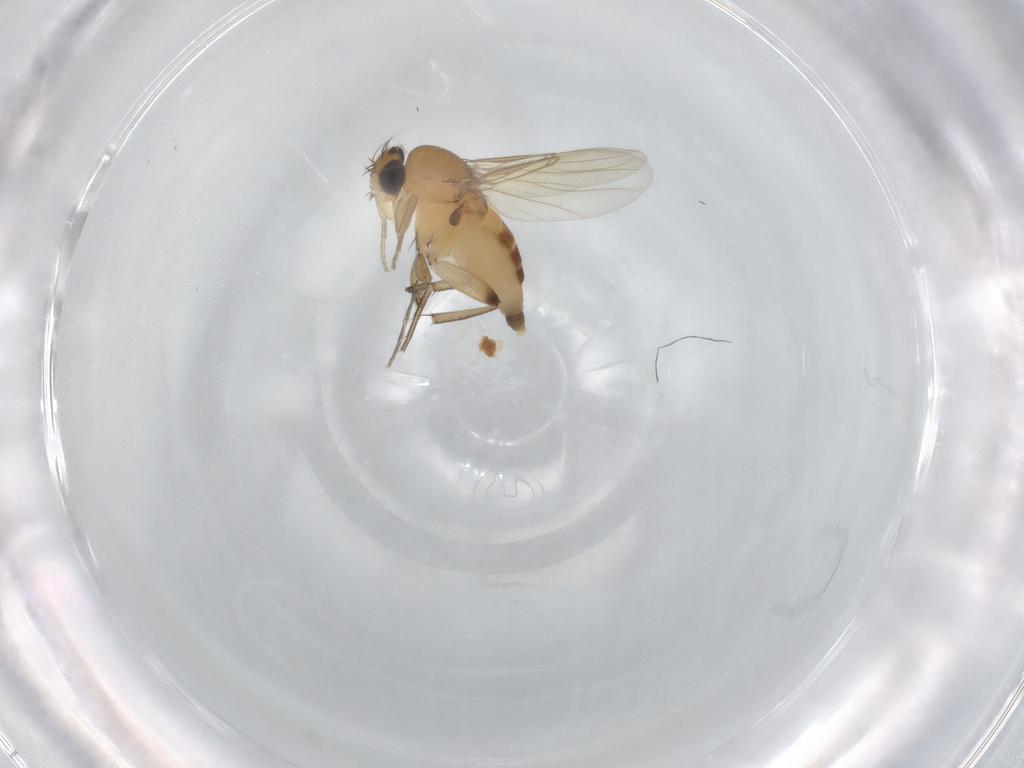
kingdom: Animalia
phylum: Arthropoda
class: Insecta
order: Diptera
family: Phoridae
